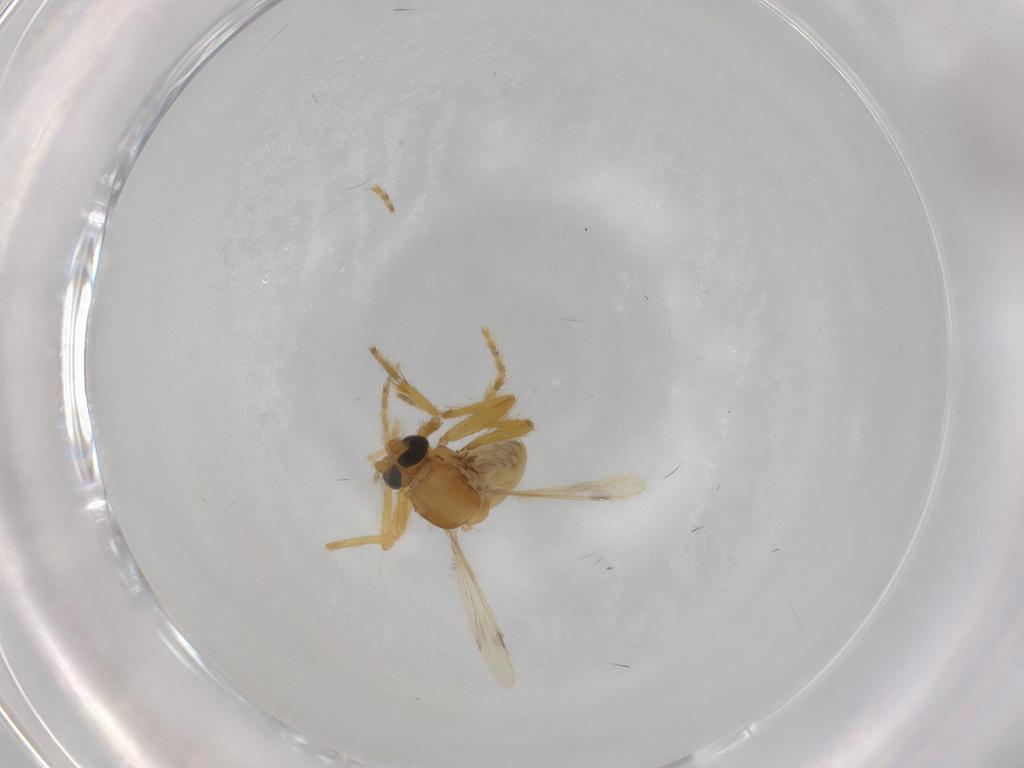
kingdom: Animalia
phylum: Arthropoda
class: Insecta
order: Diptera
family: Corethrellidae
